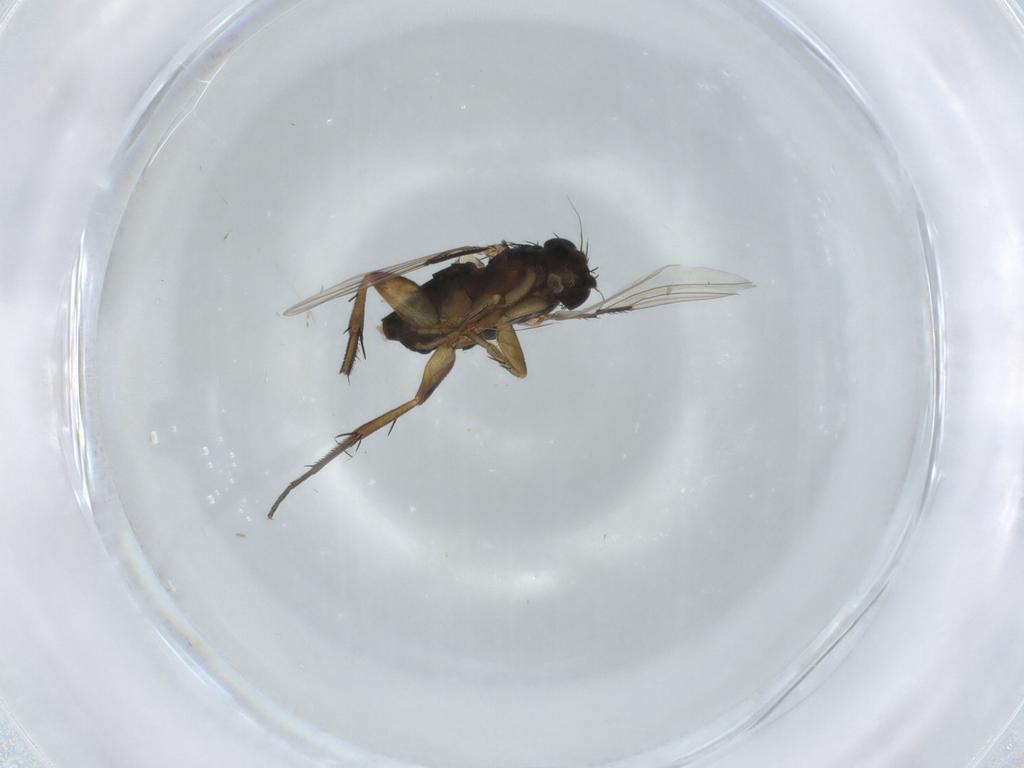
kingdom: Animalia
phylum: Arthropoda
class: Insecta
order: Diptera
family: Phoridae
